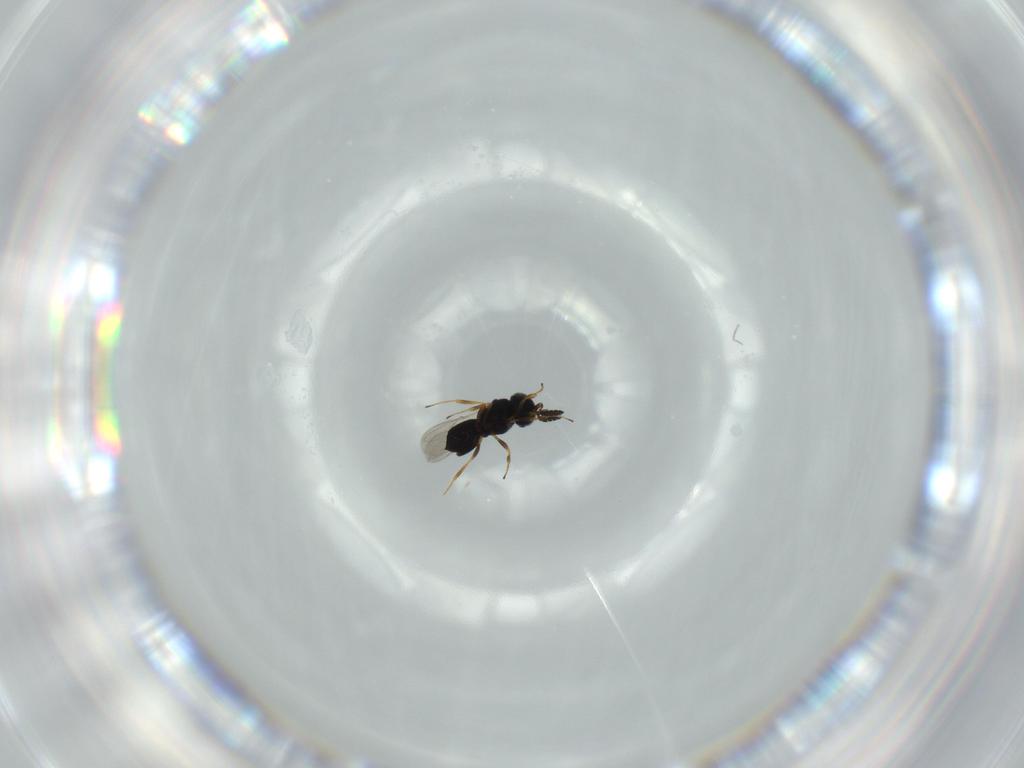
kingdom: Animalia
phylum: Arthropoda
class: Insecta
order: Hymenoptera
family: Scelionidae
